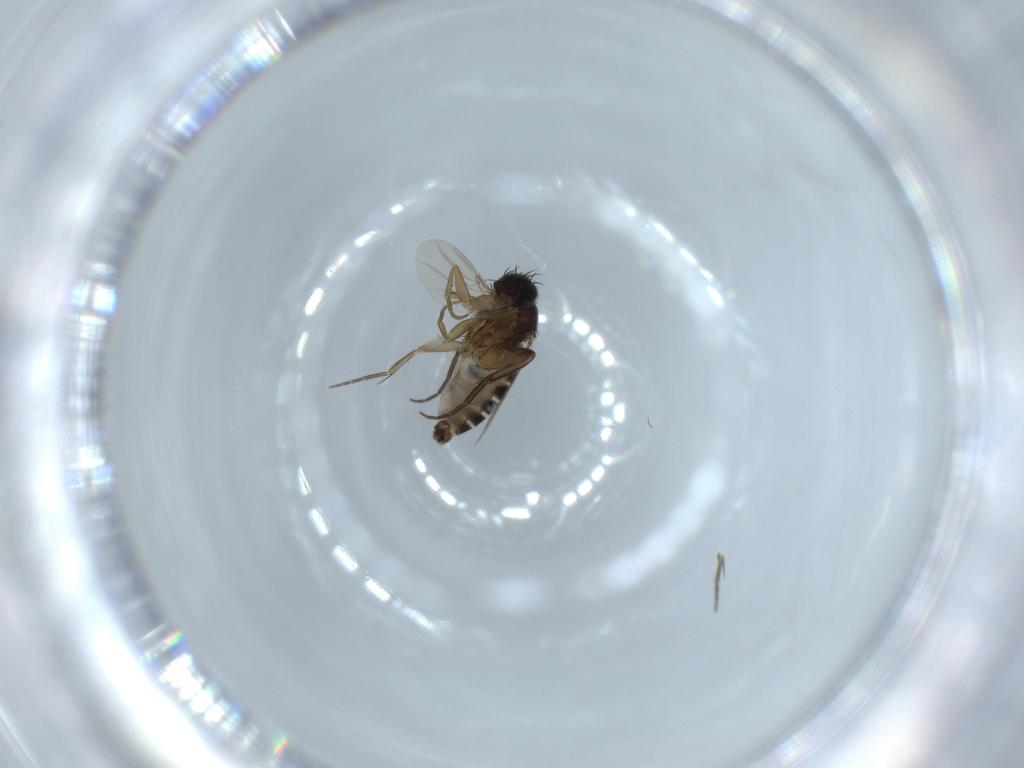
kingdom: Animalia
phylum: Arthropoda
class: Insecta
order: Diptera
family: Phoridae
